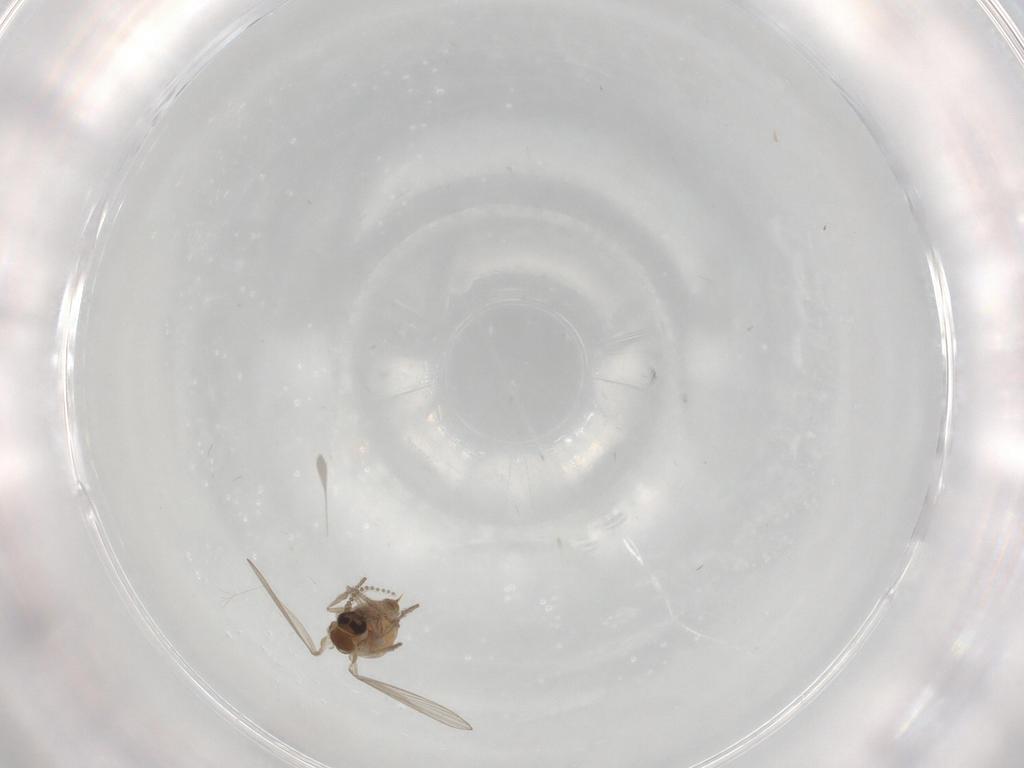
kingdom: Animalia
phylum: Arthropoda
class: Insecta
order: Diptera
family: Psychodidae
